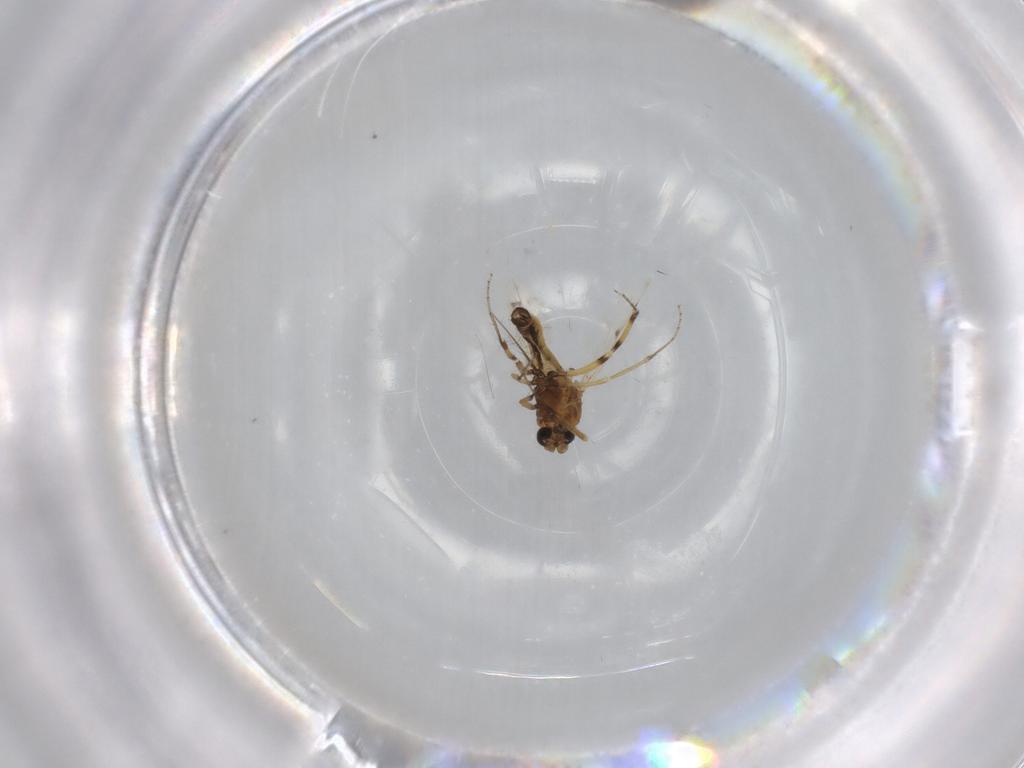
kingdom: Animalia
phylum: Arthropoda
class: Insecta
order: Diptera
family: Ceratopogonidae
